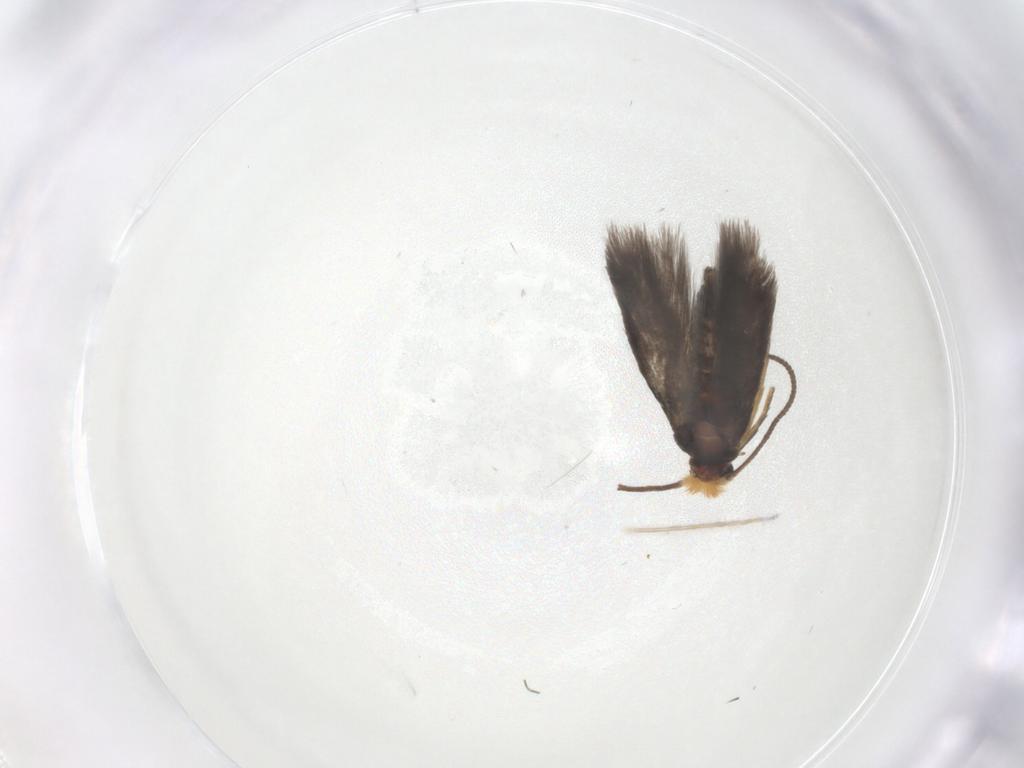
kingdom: Animalia
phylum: Arthropoda
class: Insecta
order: Lepidoptera
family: Nepticulidae
